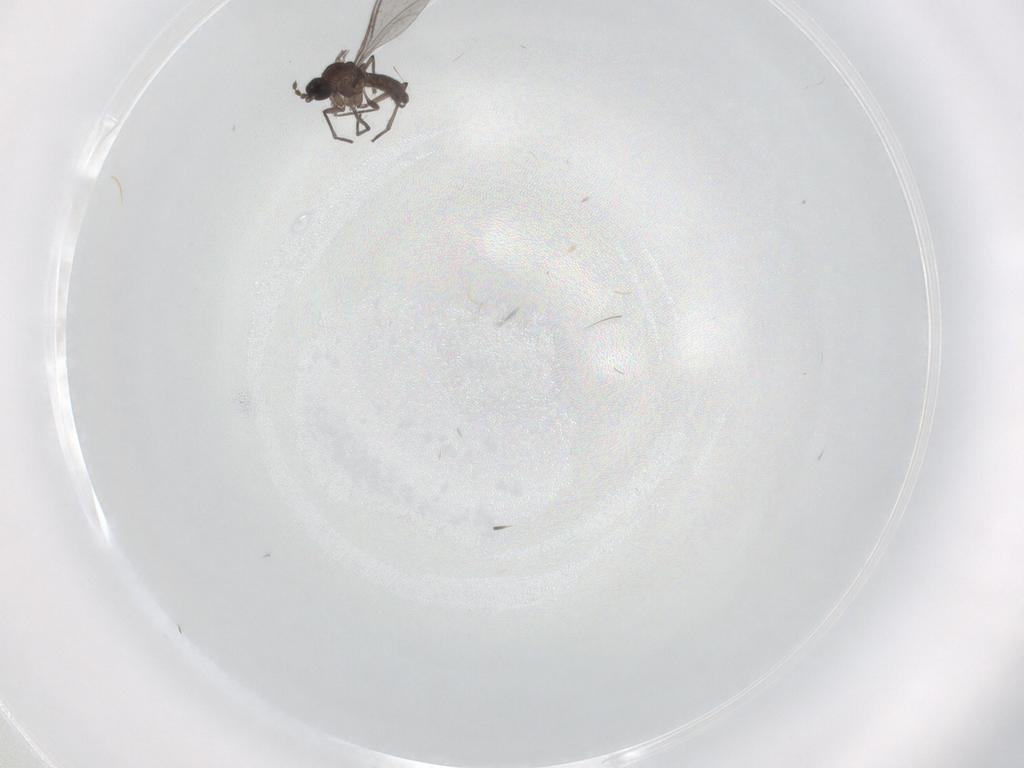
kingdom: Animalia
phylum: Arthropoda
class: Insecta
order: Diptera
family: Sciaridae
